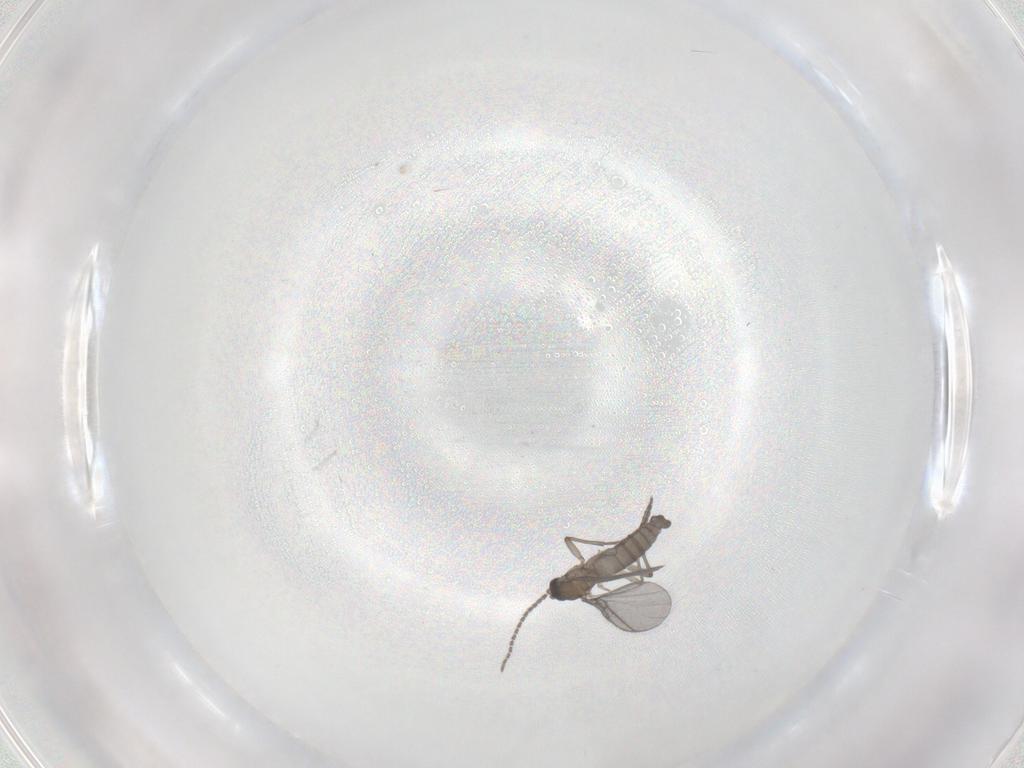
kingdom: Animalia
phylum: Arthropoda
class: Insecta
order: Diptera
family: Sciaridae
